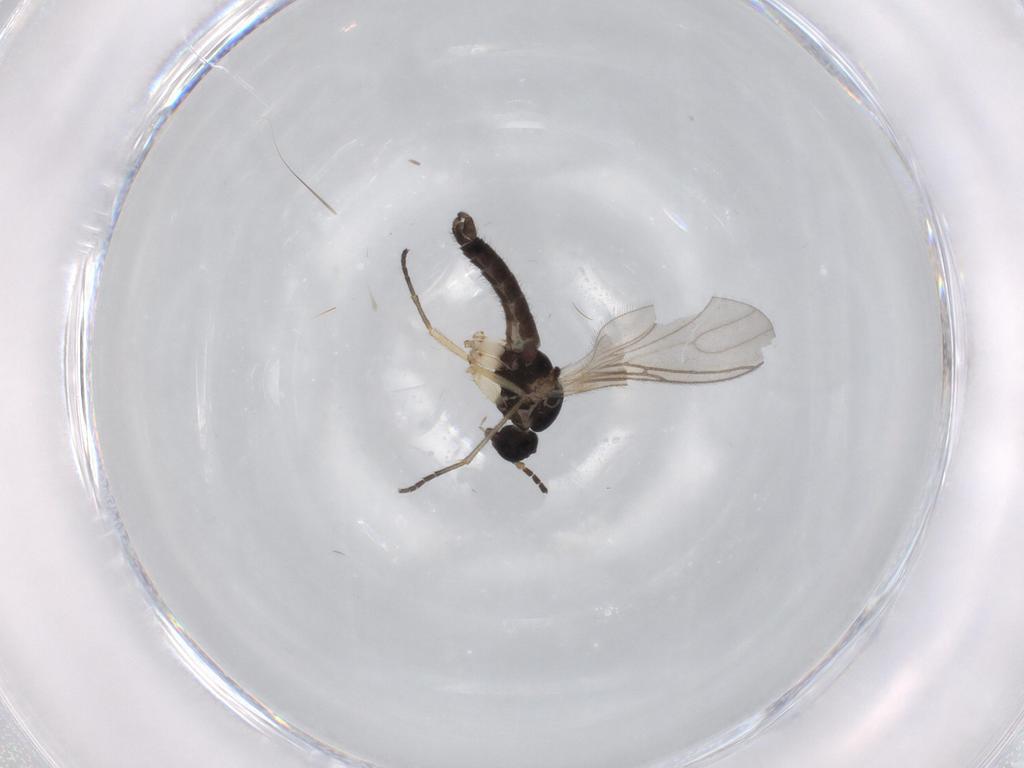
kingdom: Animalia
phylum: Arthropoda
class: Insecta
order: Diptera
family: Sciaridae
